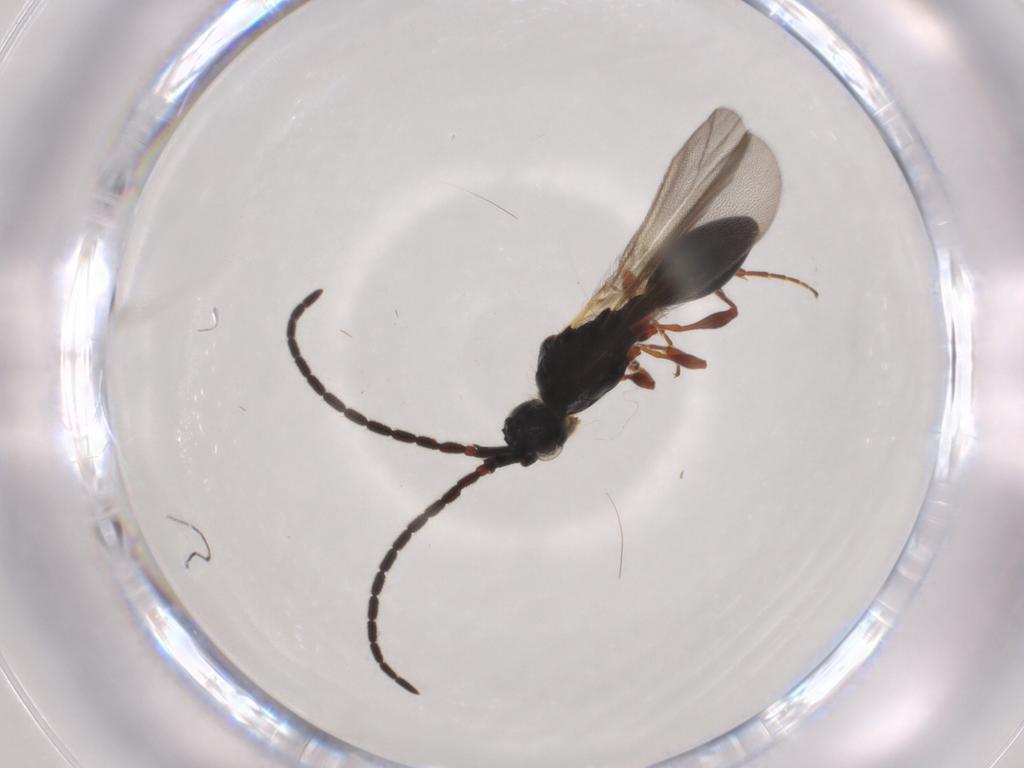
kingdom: Animalia
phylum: Arthropoda
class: Insecta
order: Hymenoptera
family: Diapriidae
